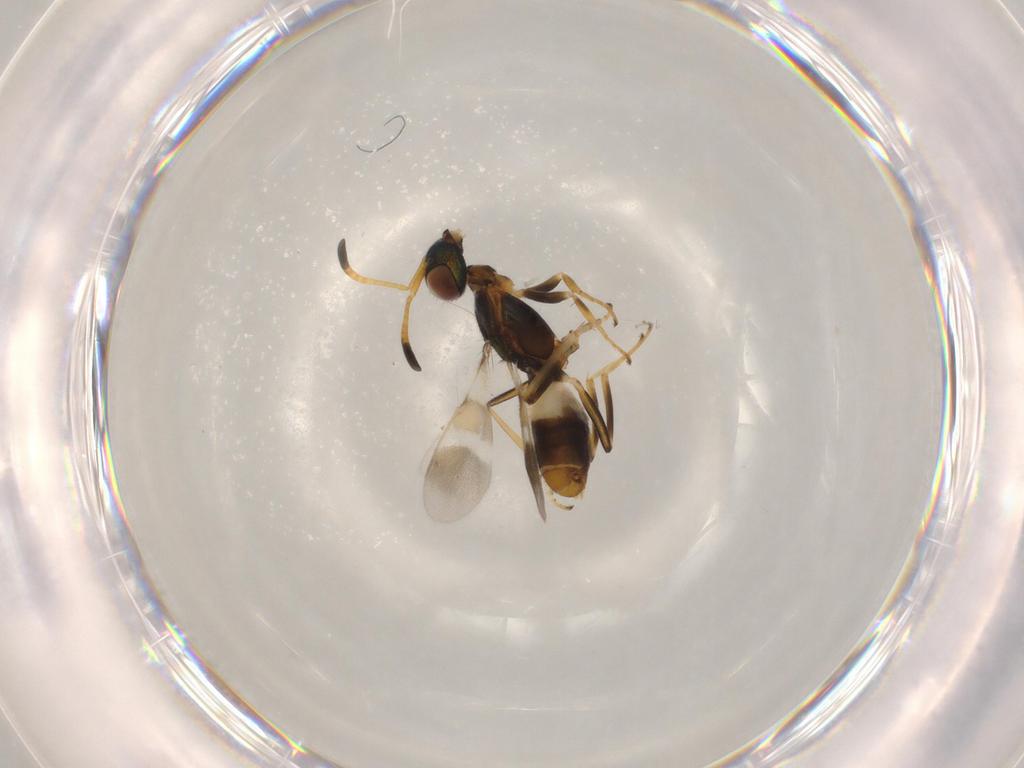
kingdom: Animalia
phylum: Arthropoda
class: Insecta
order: Hymenoptera
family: Eupelmidae
